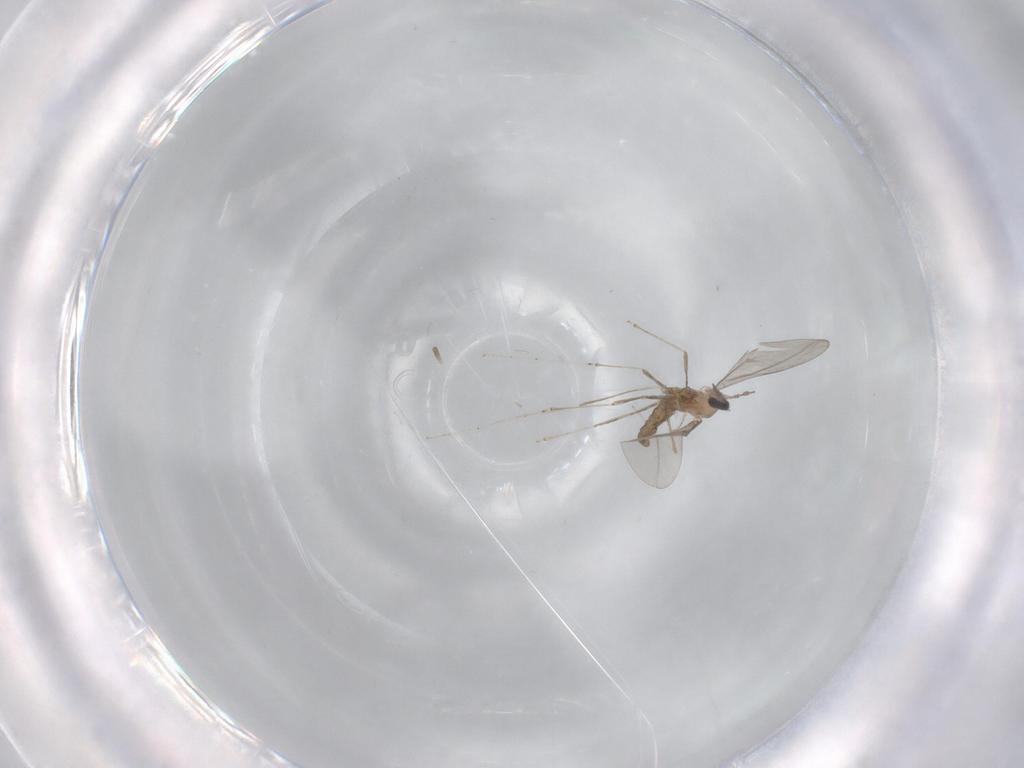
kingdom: Animalia
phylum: Arthropoda
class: Insecta
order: Diptera
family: Cecidomyiidae
